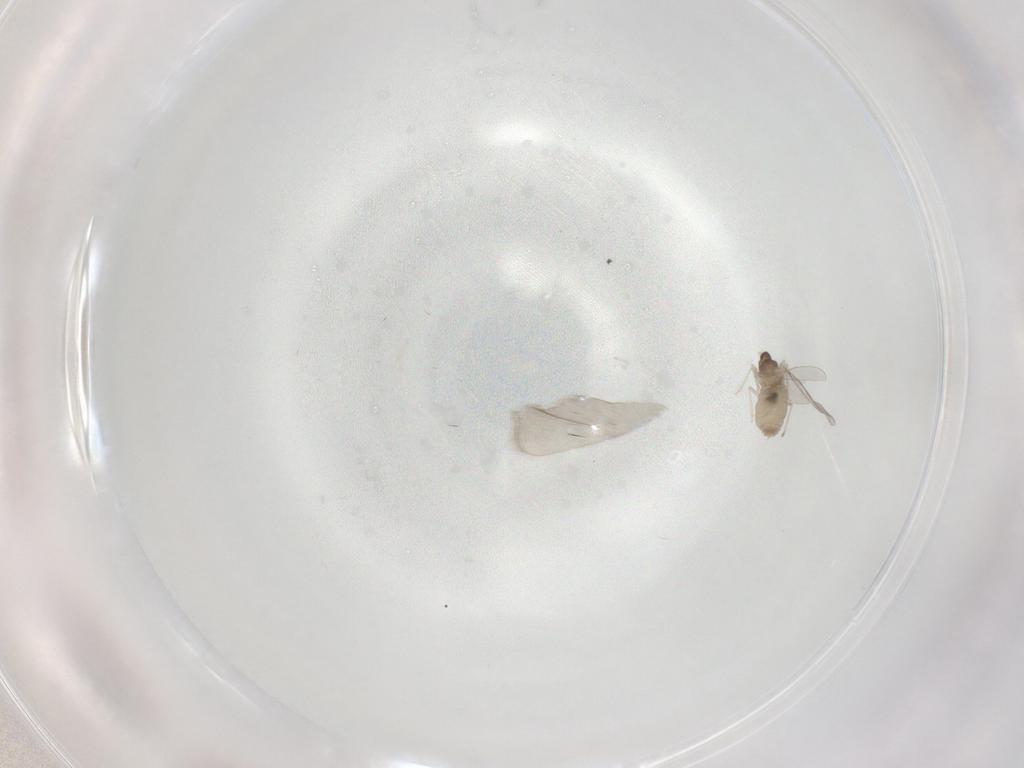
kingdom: Animalia
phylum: Arthropoda
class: Insecta
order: Diptera
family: Cecidomyiidae
